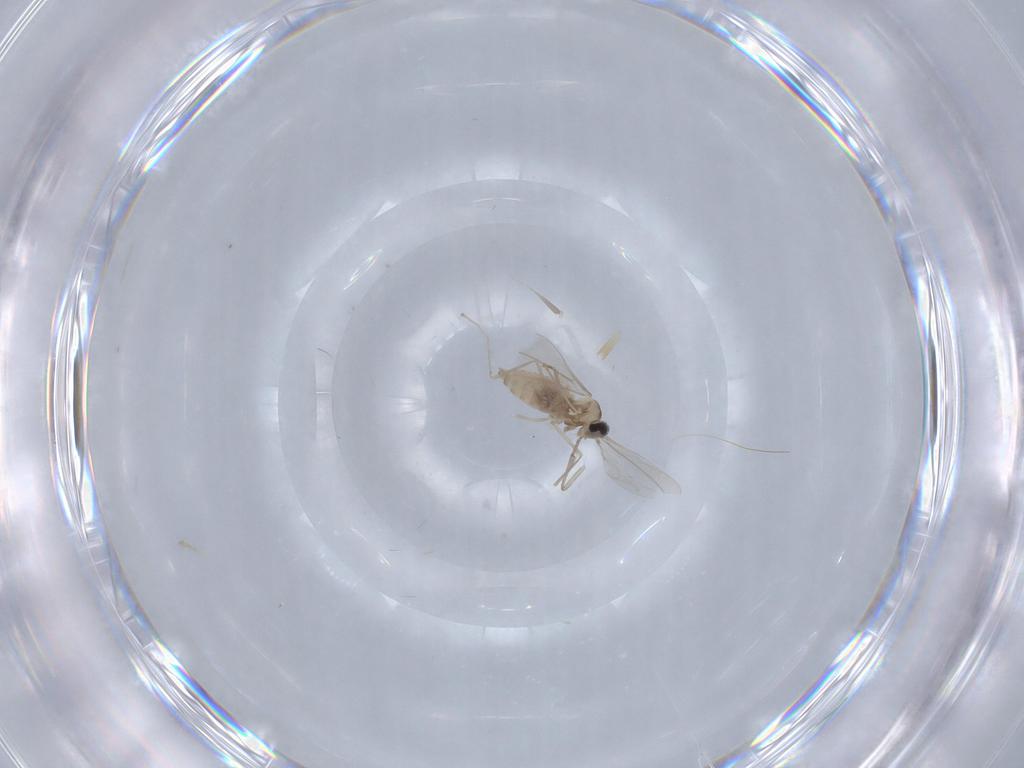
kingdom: Animalia
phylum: Arthropoda
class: Insecta
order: Diptera
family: Cecidomyiidae
